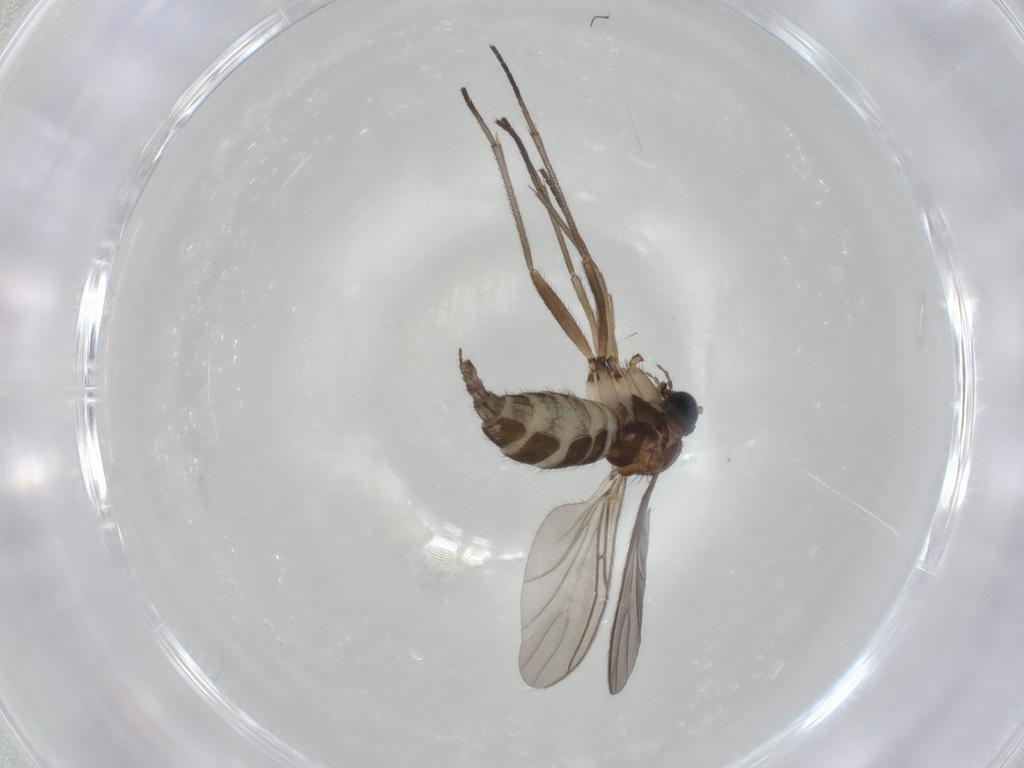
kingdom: Animalia
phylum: Arthropoda
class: Insecta
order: Diptera
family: Sciaridae
